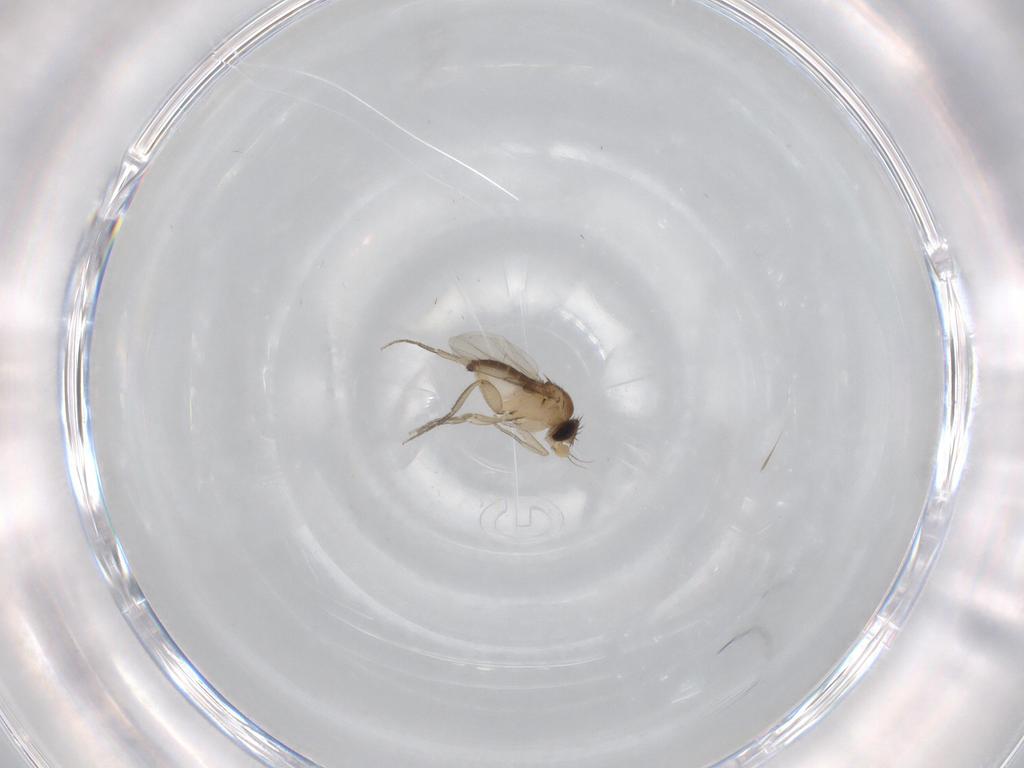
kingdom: Animalia
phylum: Arthropoda
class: Insecta
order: Diptera
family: Phoridae
